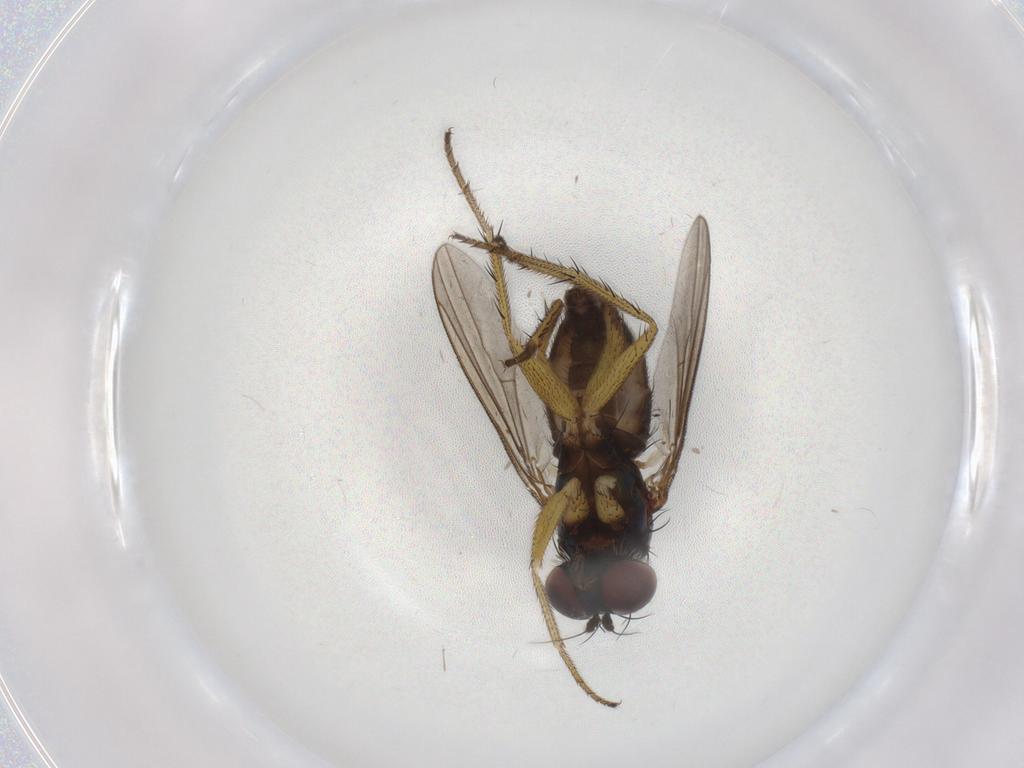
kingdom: Animalia
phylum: Arthropoda
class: Insecta
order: Diptera
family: Dolichopodidae
